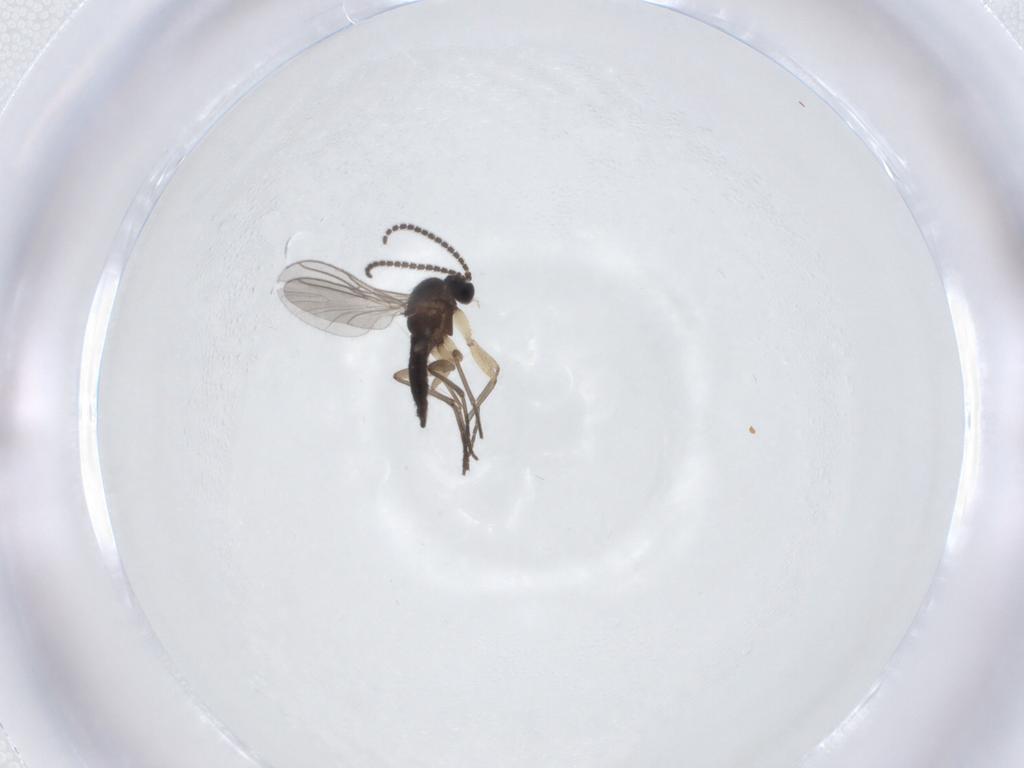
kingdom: Animalia
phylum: Arthropoda
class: Insecta
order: Diptera
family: Sciaridae
